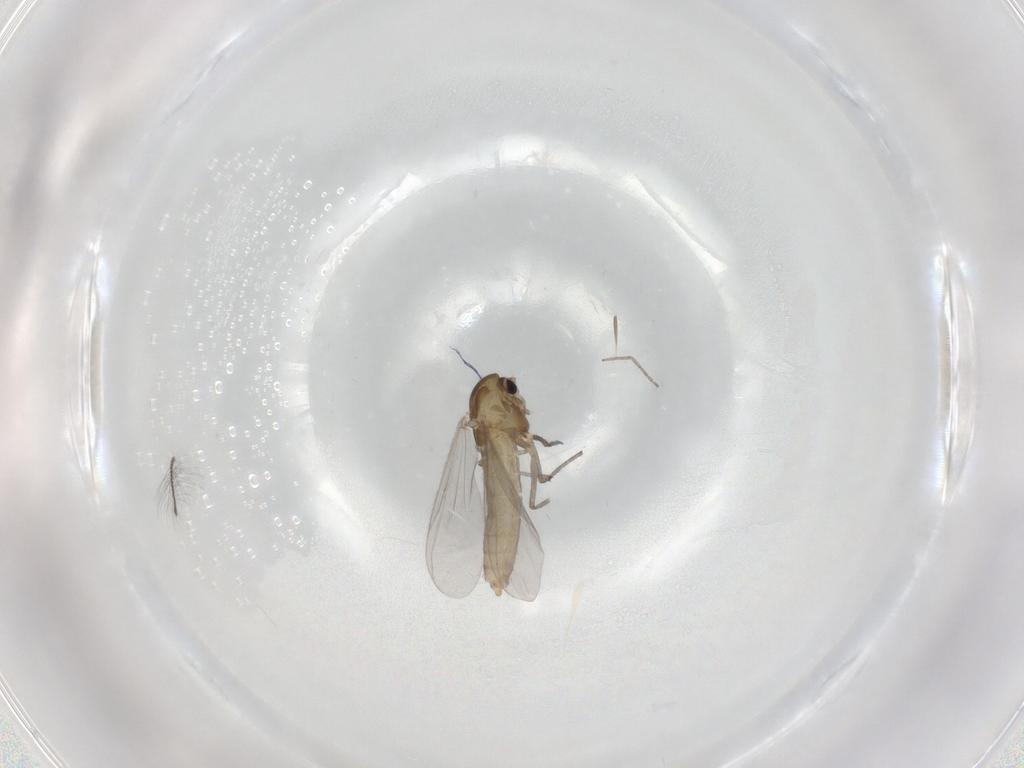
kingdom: Animalia
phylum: Arthropoda
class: Insecta
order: Diptera
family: Chironomidae
